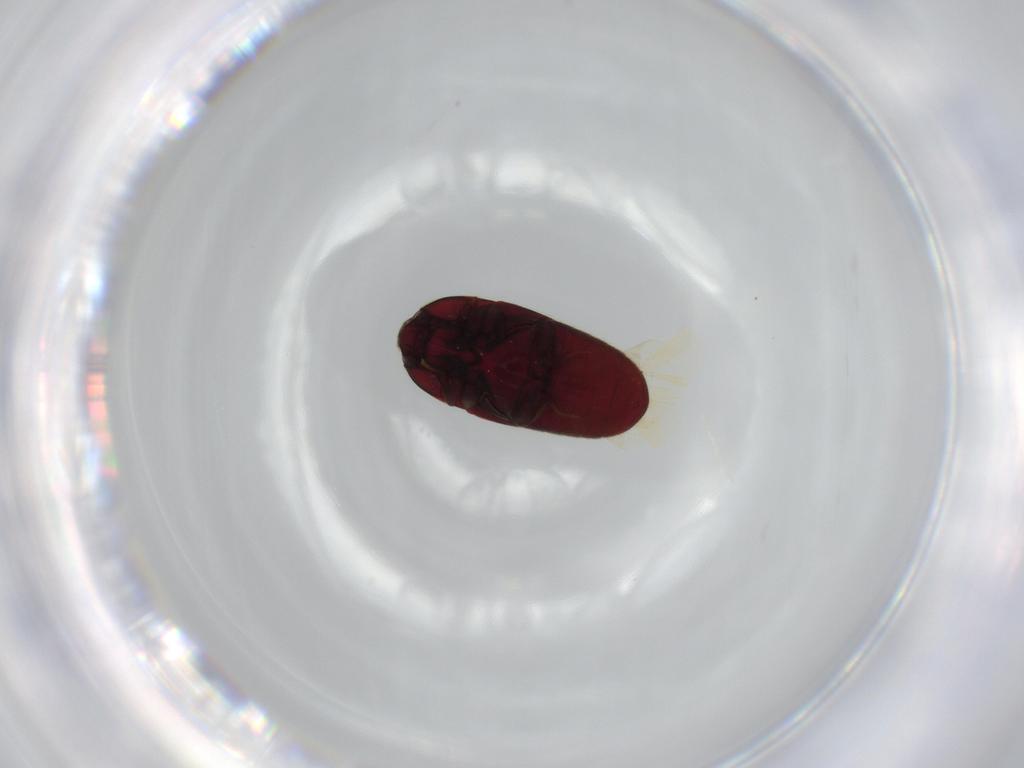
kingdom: Animalia
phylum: Arthropoda
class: Insecta
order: Coleoptera
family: Throscidae
